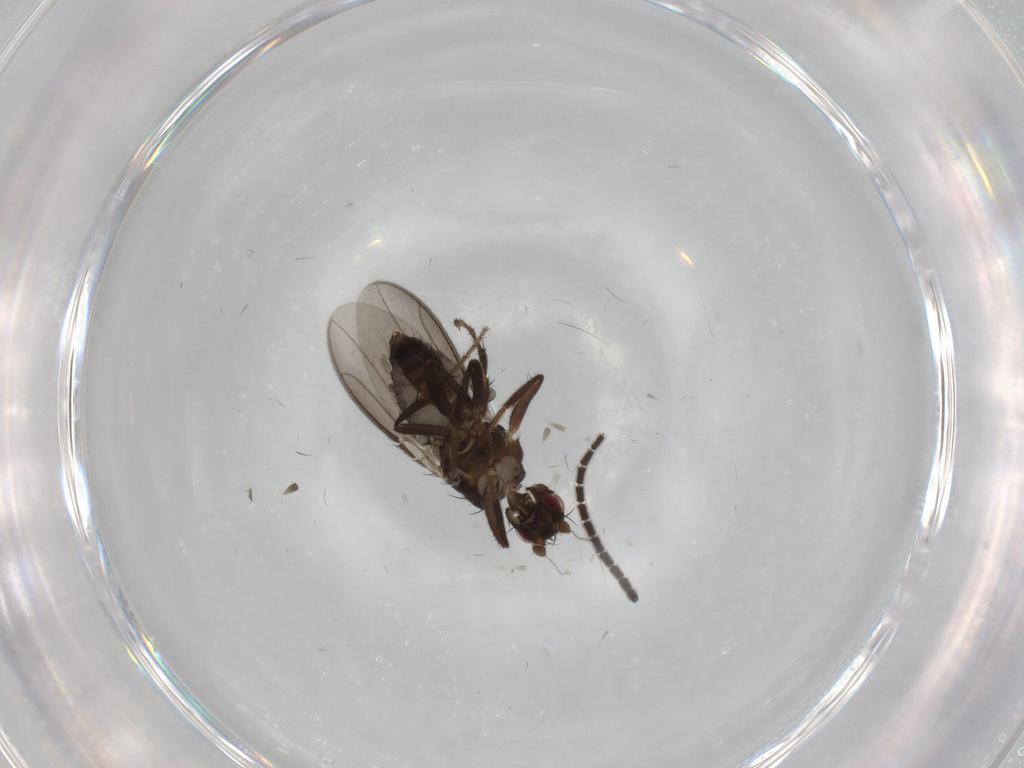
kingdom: Animalia
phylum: Arthropoda
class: Insecta
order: Diptera
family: Sphaeroceridae
